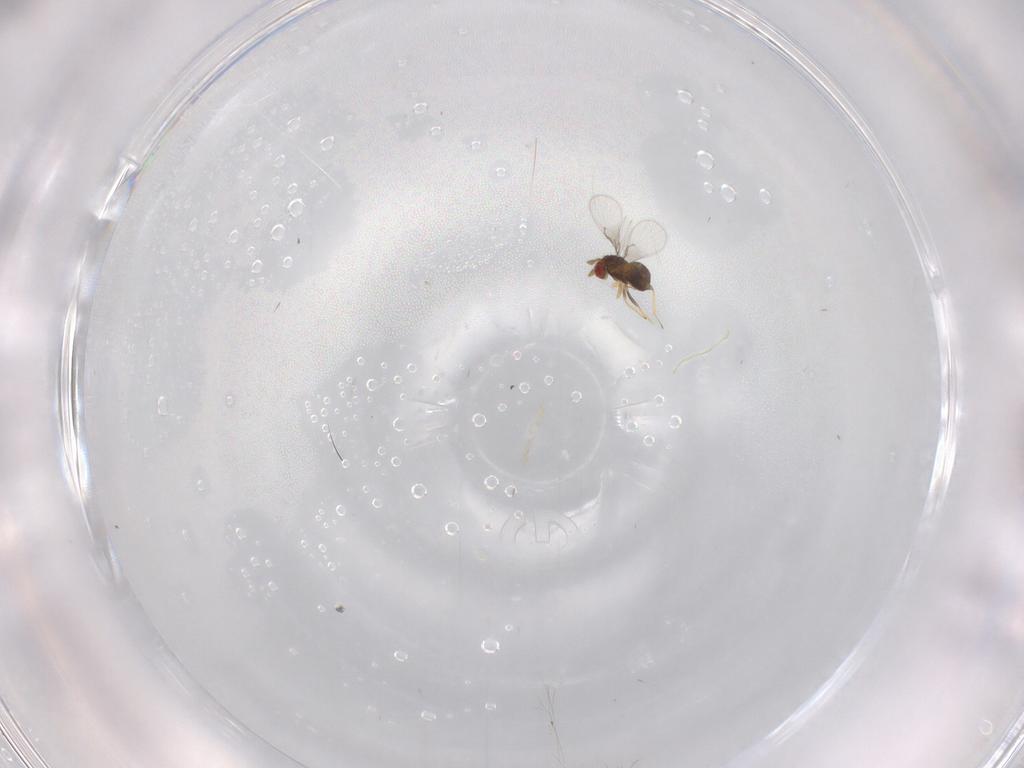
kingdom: Animalia
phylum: Arthropoda
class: Insecta
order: Hymenoptera
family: Trichogrammatidae
